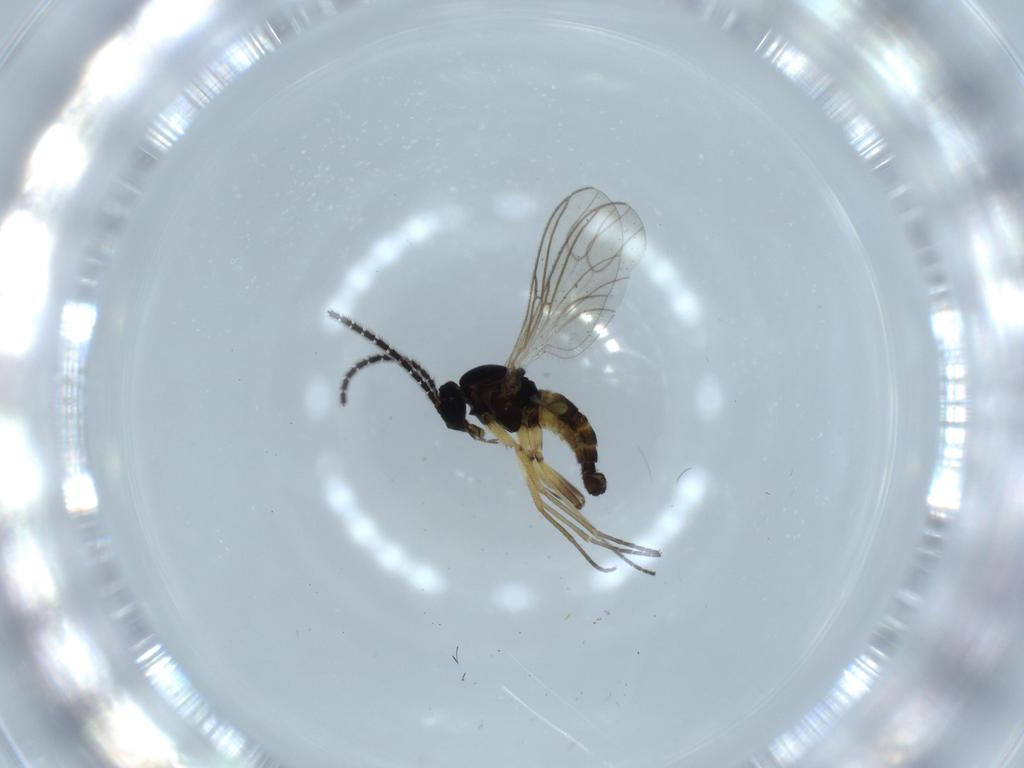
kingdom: Animalia
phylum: Arthropoda
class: Insecta
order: Diptera
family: Sciaridae
